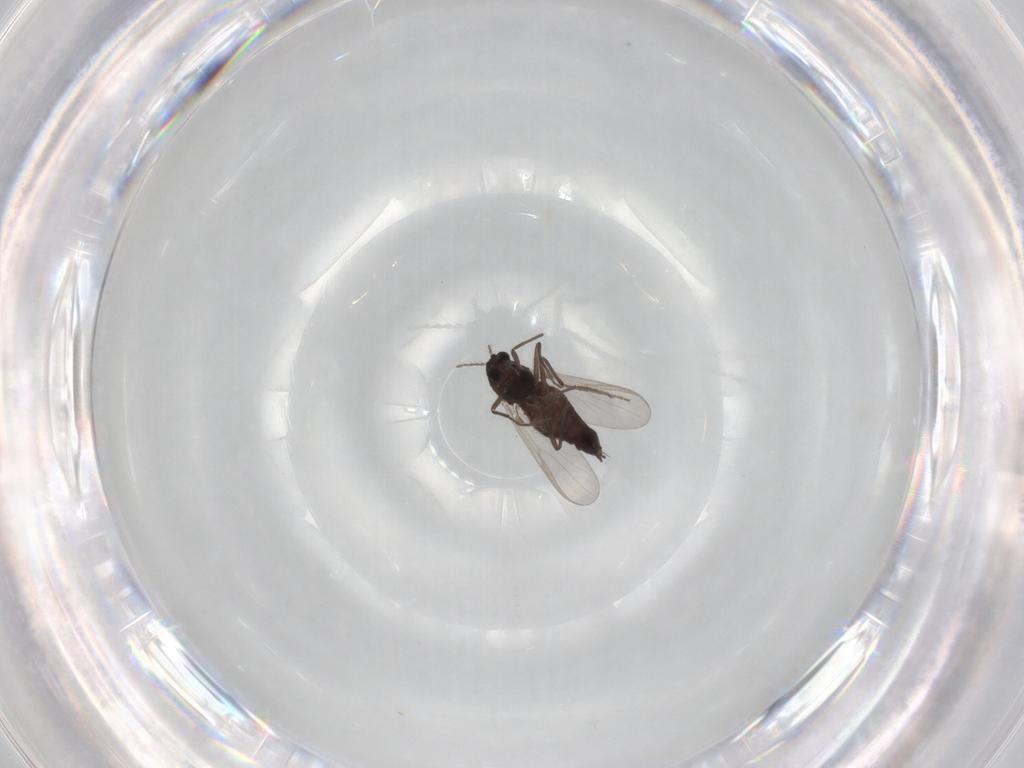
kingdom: Animalia
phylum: Arthropoda
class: Insecta
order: Diptera
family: Chironomidae
